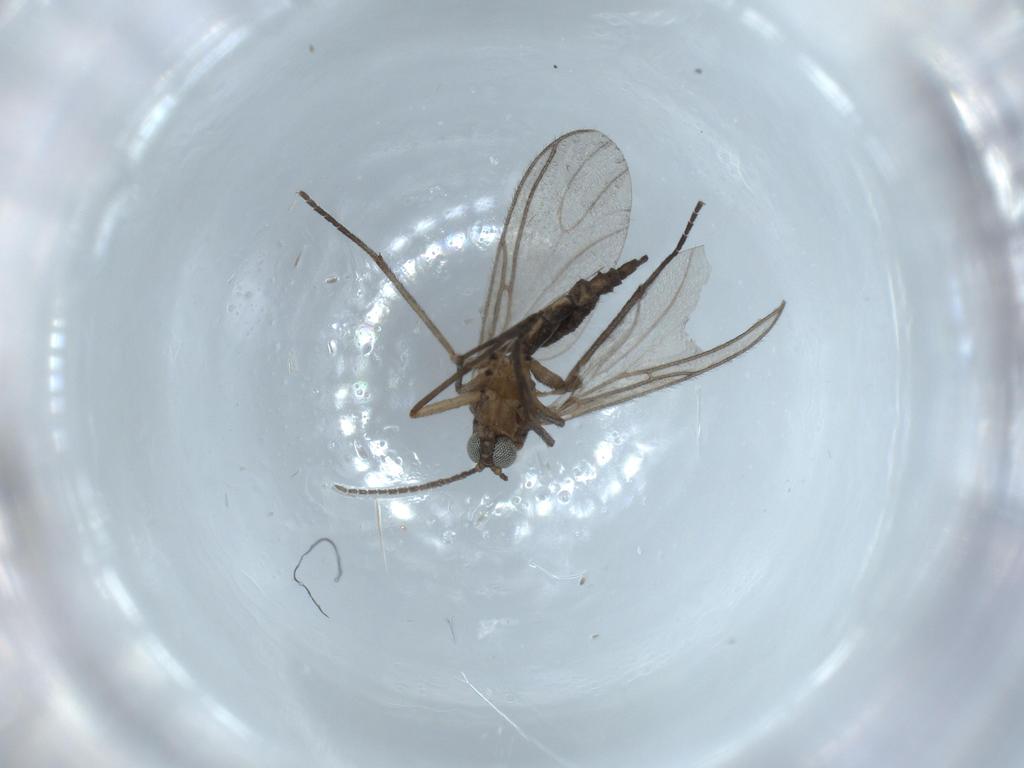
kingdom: Animalia
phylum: Arthropoda
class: Insecta
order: Diptera
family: Sciaridae
